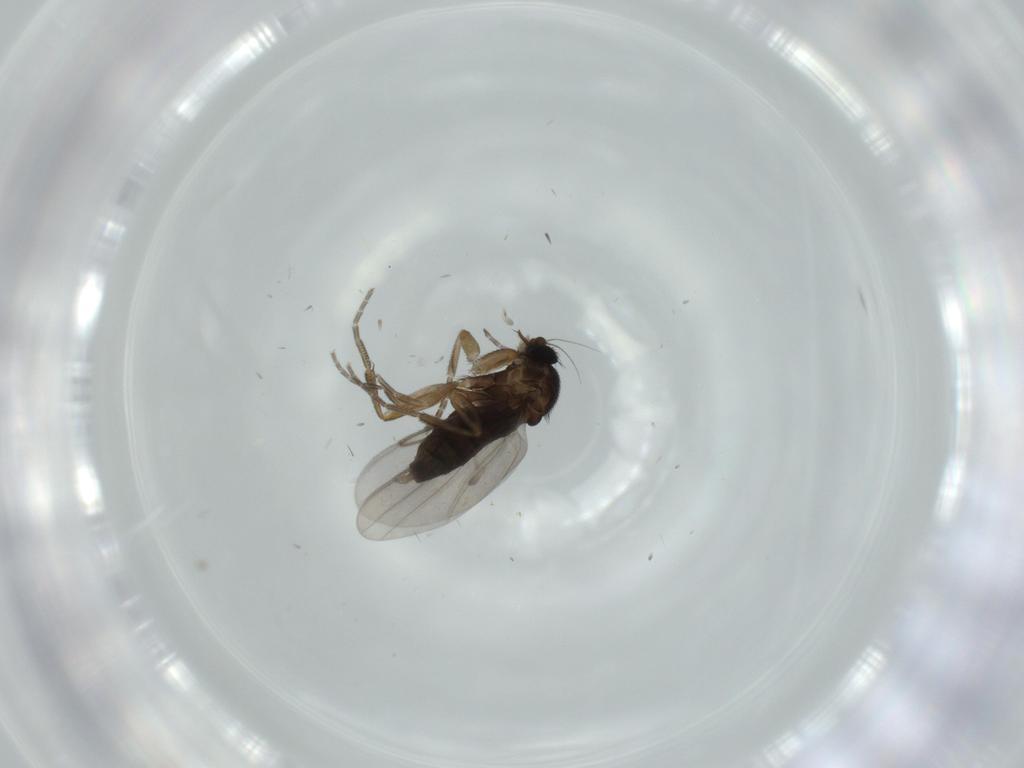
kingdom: Animalia
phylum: Arthropoda
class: Insecta
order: Diptera
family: Phoridae
